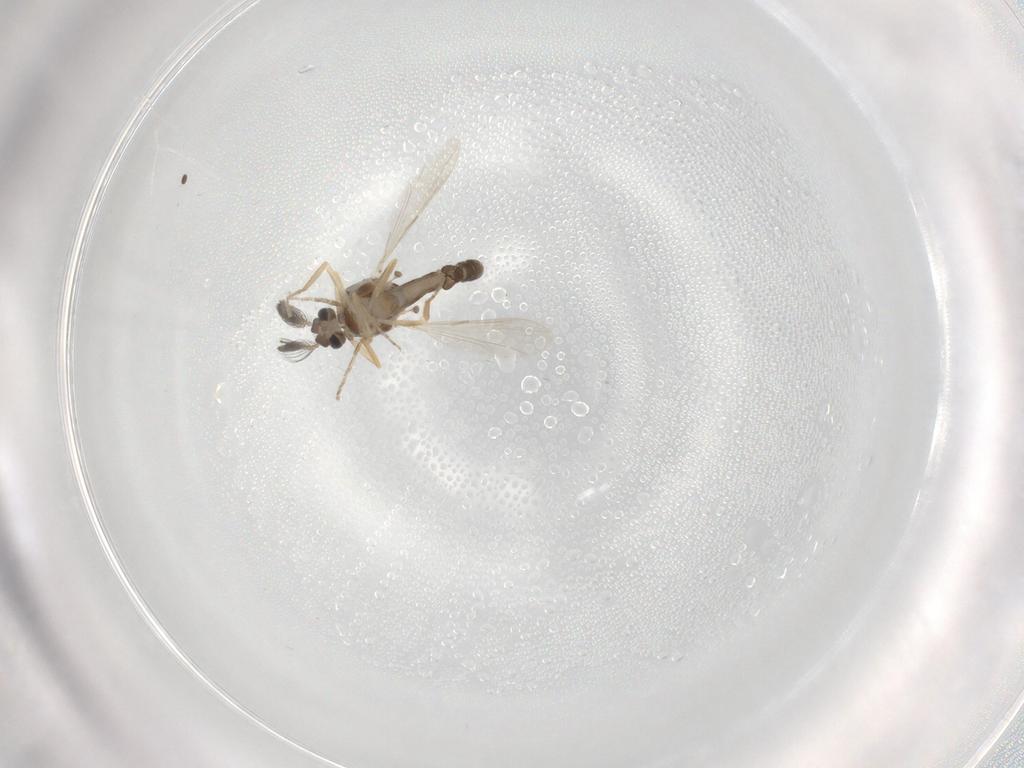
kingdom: Animalia
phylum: Arthropoda
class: Insecta
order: Diptera
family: Ceratopogonidae
